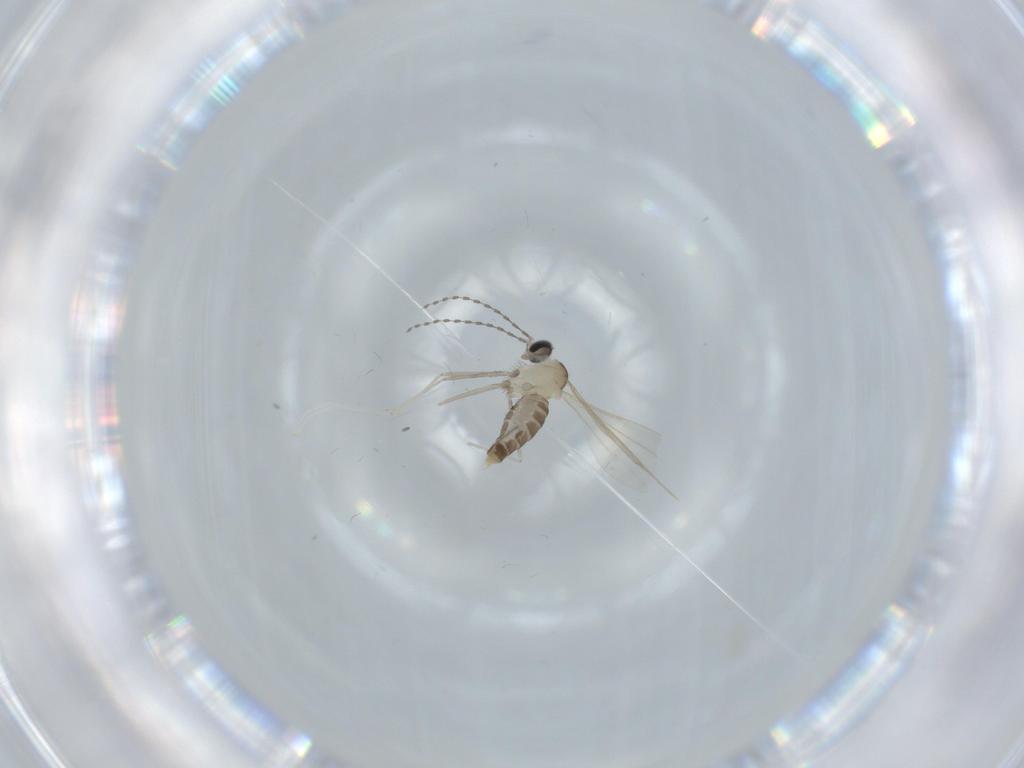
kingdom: Animalia
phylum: Arthropoda
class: Insecta
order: Diptera
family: Cecidomyiidae
